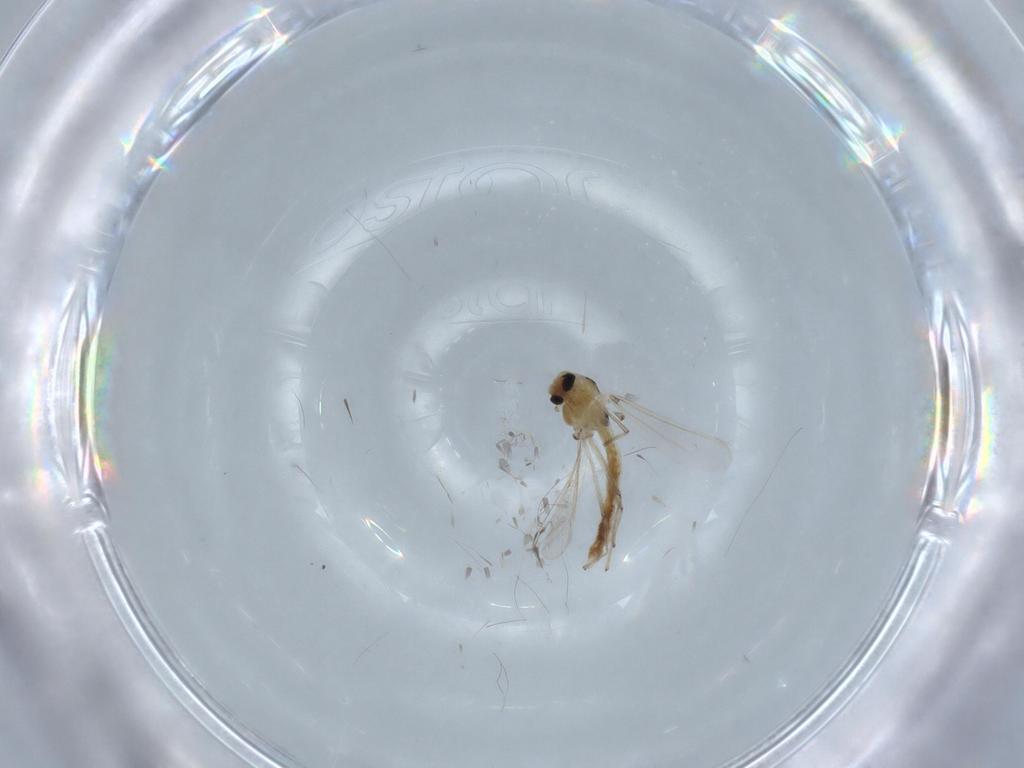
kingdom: Animalia
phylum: Arthropoda
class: Insecta
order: Diptera
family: Chironomidae
